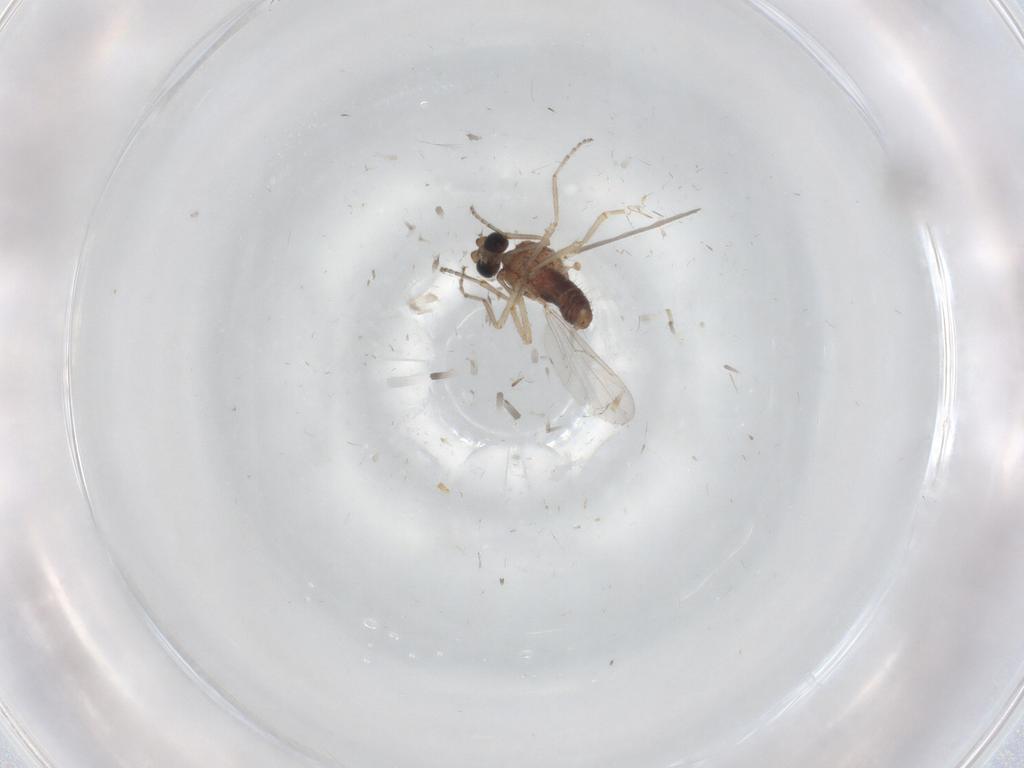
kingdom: Animalia
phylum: Arthropoda
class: Insecta
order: Diptera
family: Ceratopogonidae
